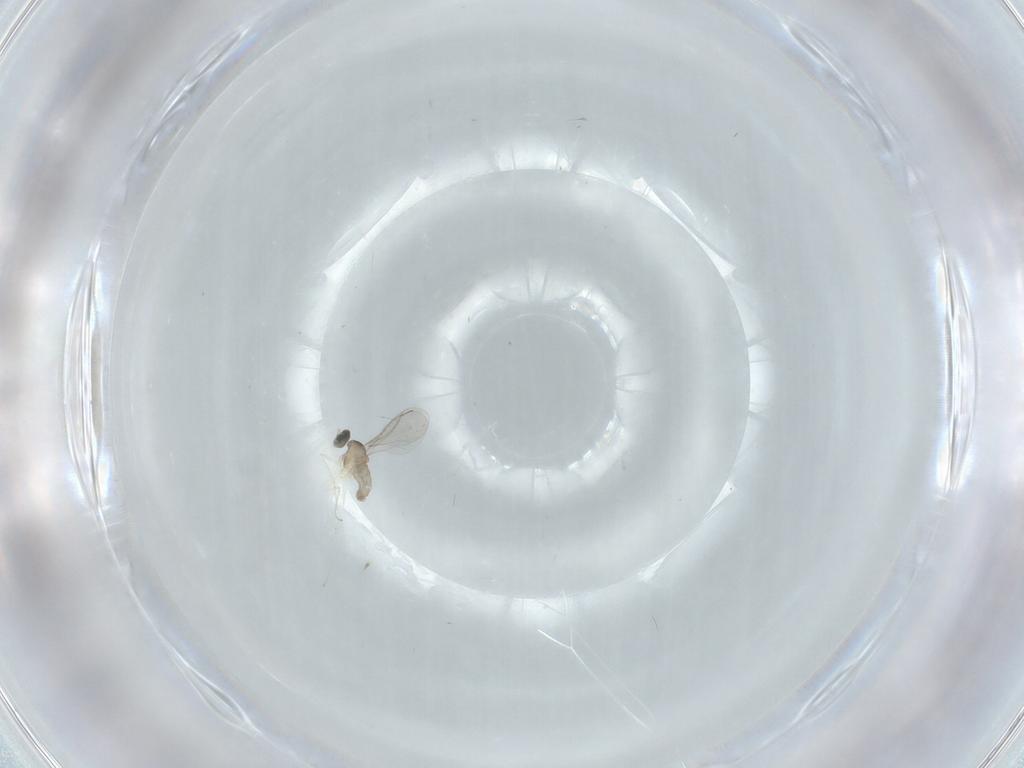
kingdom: Animalia
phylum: Arthropoda
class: Insecta
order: Diptera
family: Cecidomyiidae
